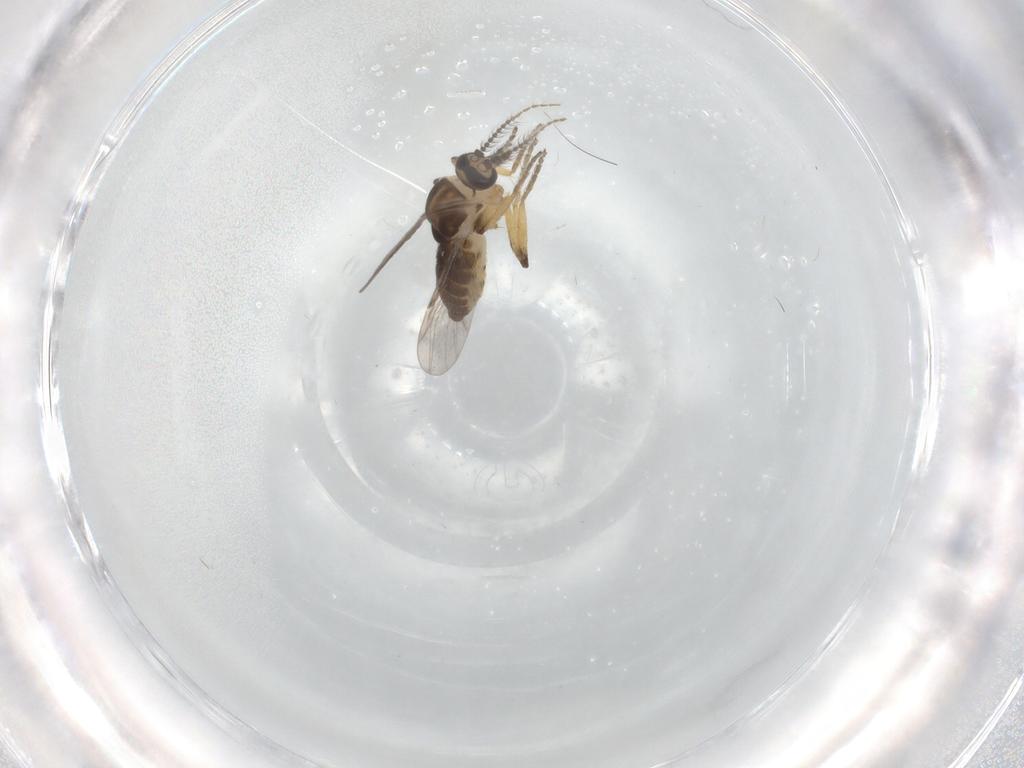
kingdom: Animalia
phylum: Arthropoda
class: Insecta
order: Diptera
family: Ceratopogonidae
